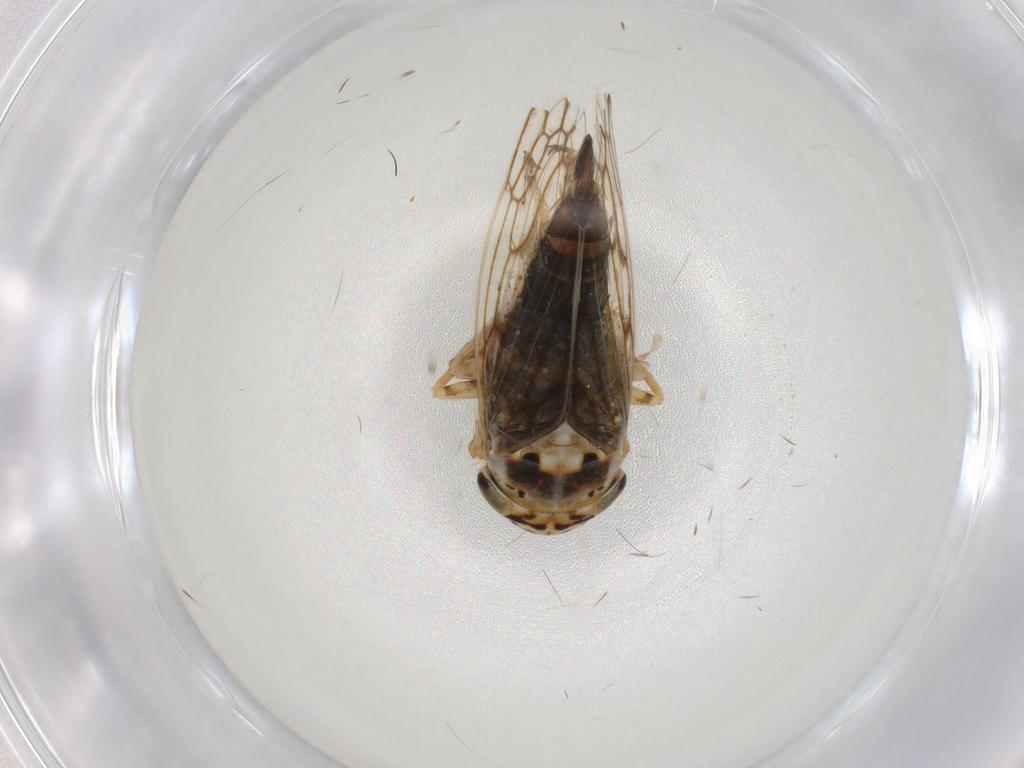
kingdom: Animalia
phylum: Arthropoda
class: Insecta
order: Hemiptera
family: Cicadellidae
